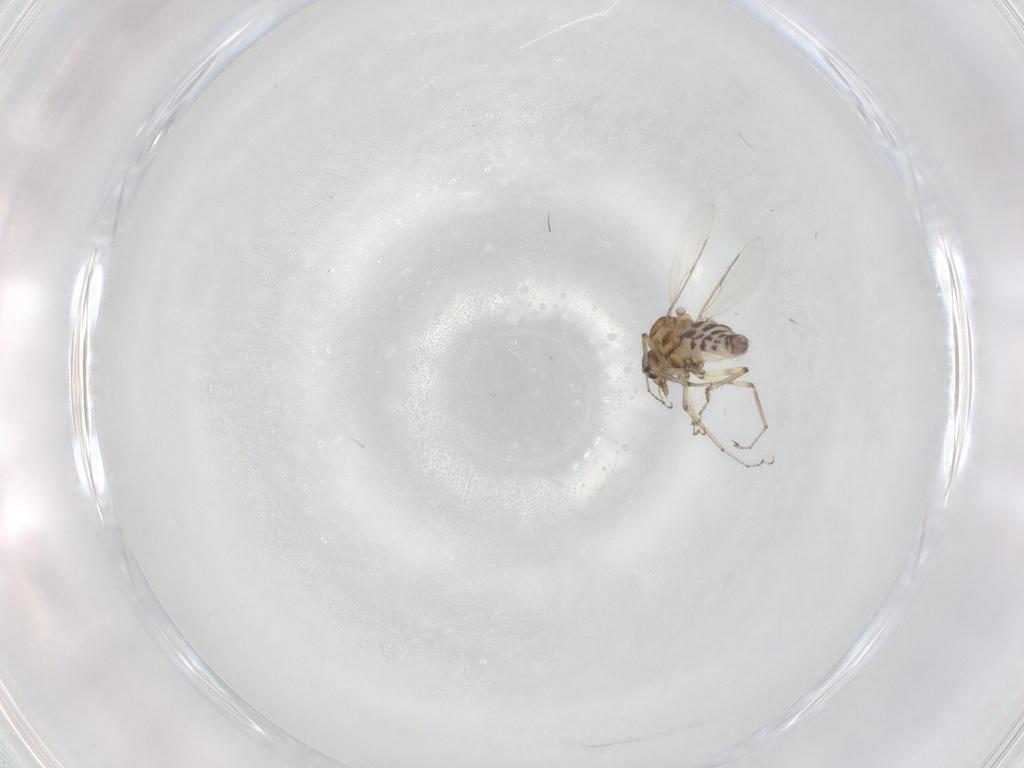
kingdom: Animalia
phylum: Arthropoda
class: Insecta
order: Diptera
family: Ceratopogonidae
